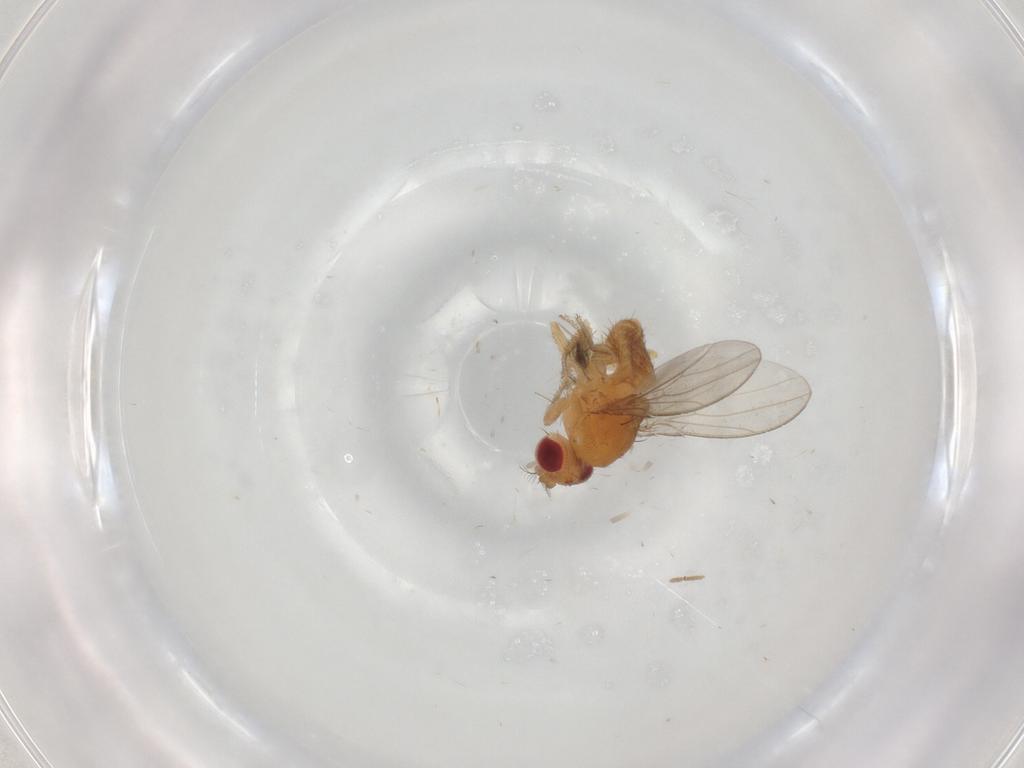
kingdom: Animalia
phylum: Arthropoda
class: Insecta
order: Diptera
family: Drosophilidae
